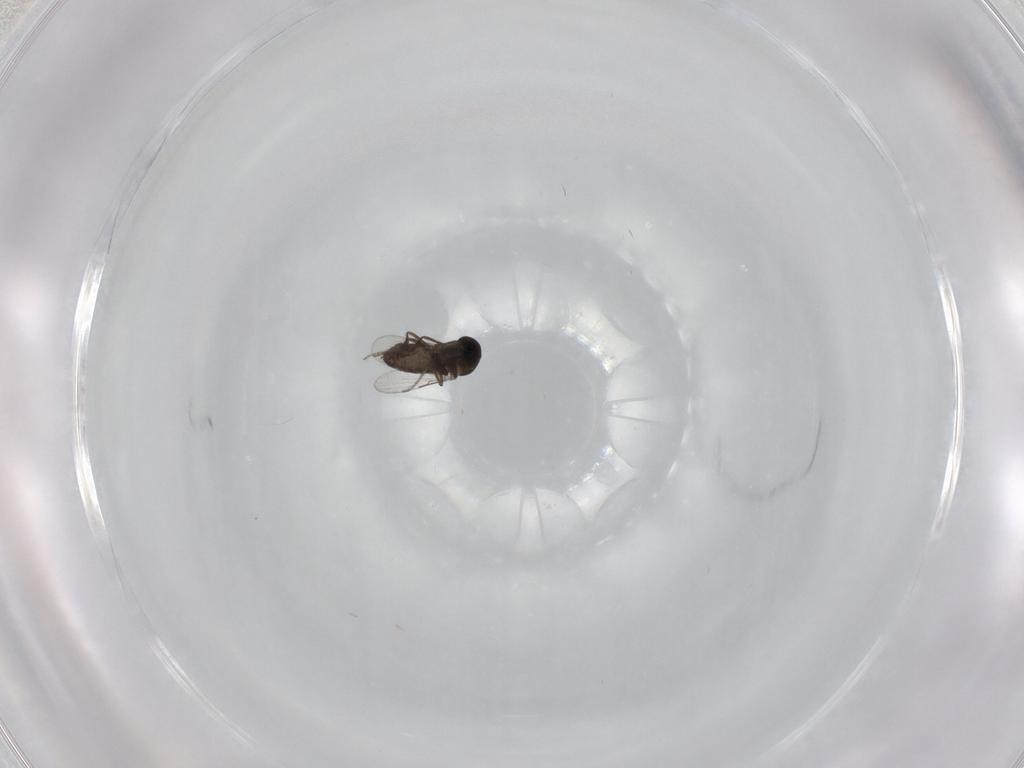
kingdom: Animalia
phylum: Arthropoda
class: Insecta
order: Diptera
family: Ceratopogonidae
